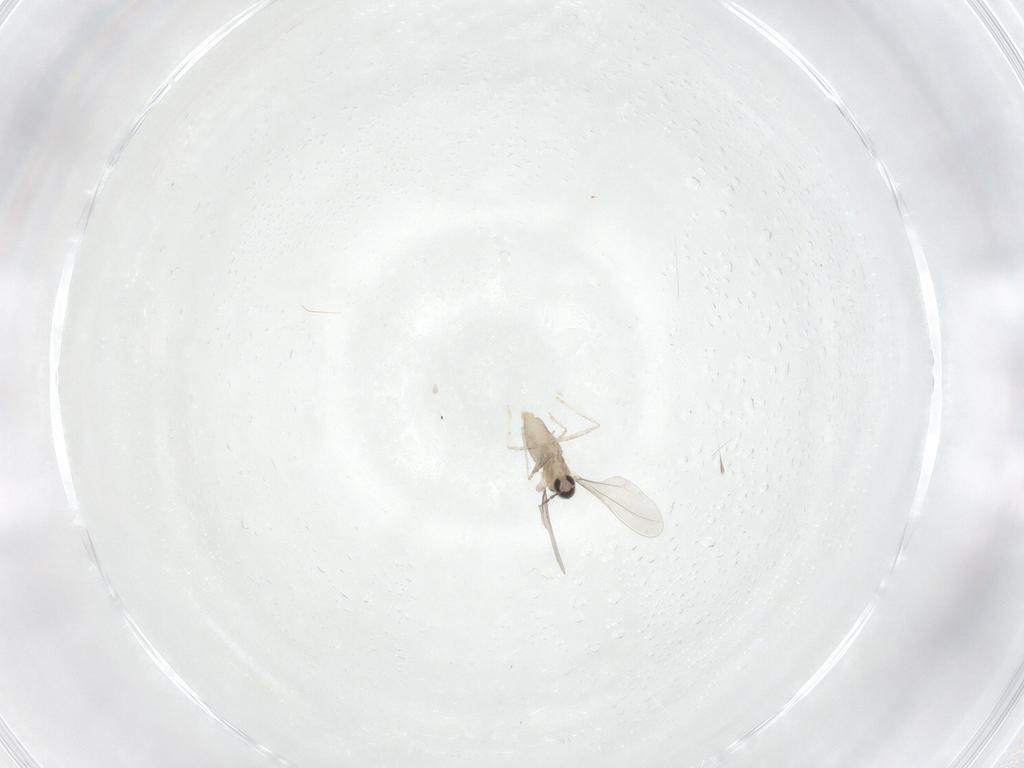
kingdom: Animalia
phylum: Arthropoda
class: Insecta
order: Diptera
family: Cecidomyiidae
